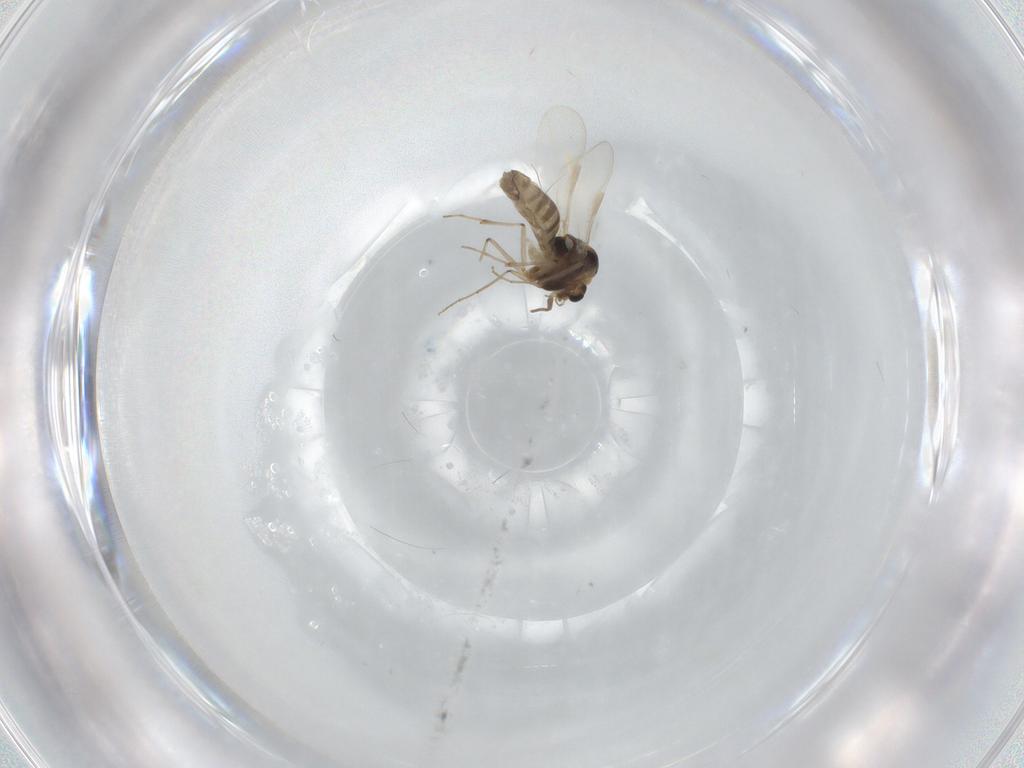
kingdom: Animalia
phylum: Arthropoda
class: Insecta
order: Diptera
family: Chironomidae
